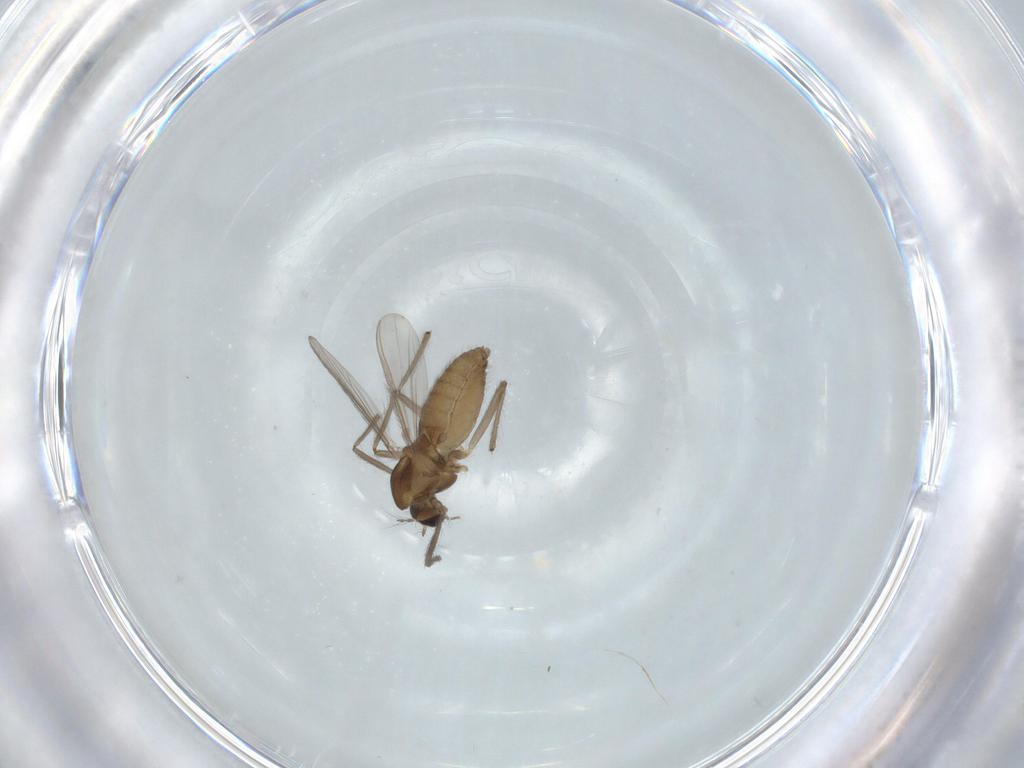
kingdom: Animalia
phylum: Arthropoda
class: Insecta
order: Diptera
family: Chironomidae
